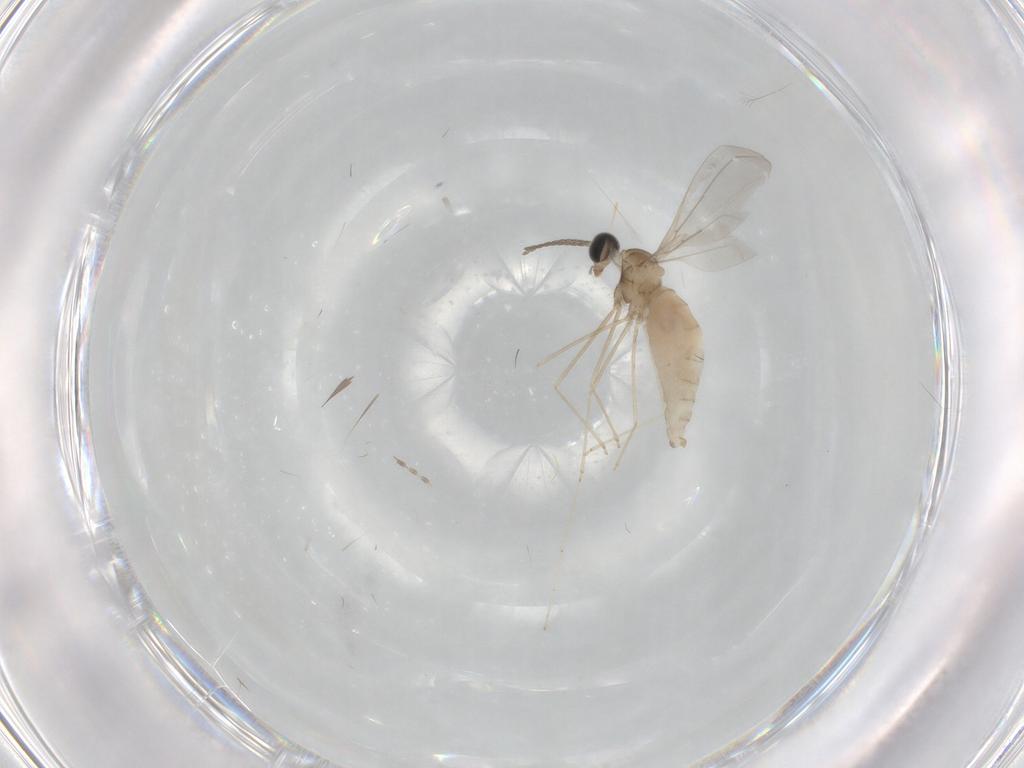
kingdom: Animalia
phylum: Arthropoda
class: Insecta
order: Diptera
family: Cecidomyiidae
